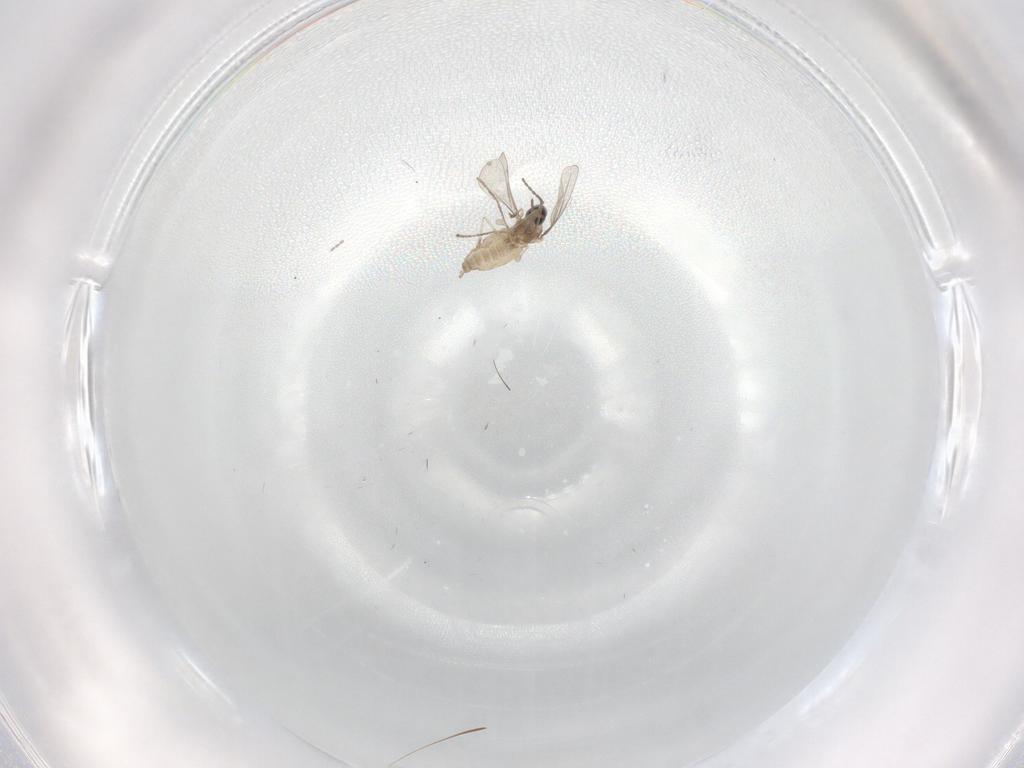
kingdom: Animalia
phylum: Arthropoda
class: Insecta
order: Diptera
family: Cecidomyiidae
